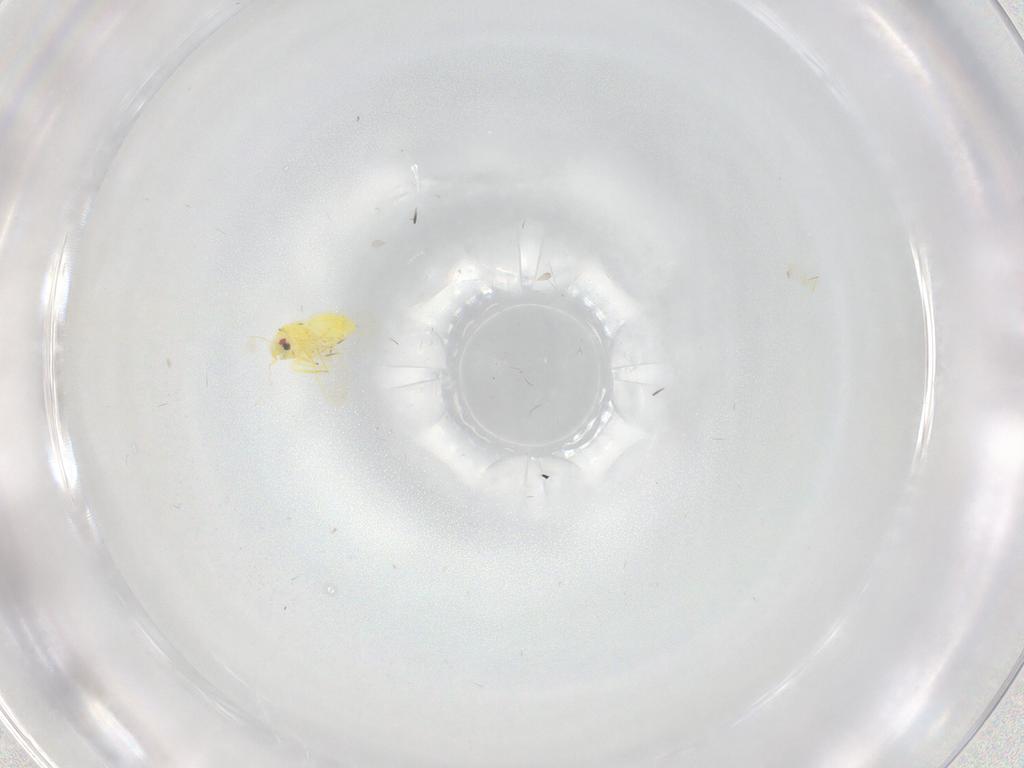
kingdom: Animalia
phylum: Arthropoda
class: Insecta
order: Hemiptera
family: Aleyrodidae
